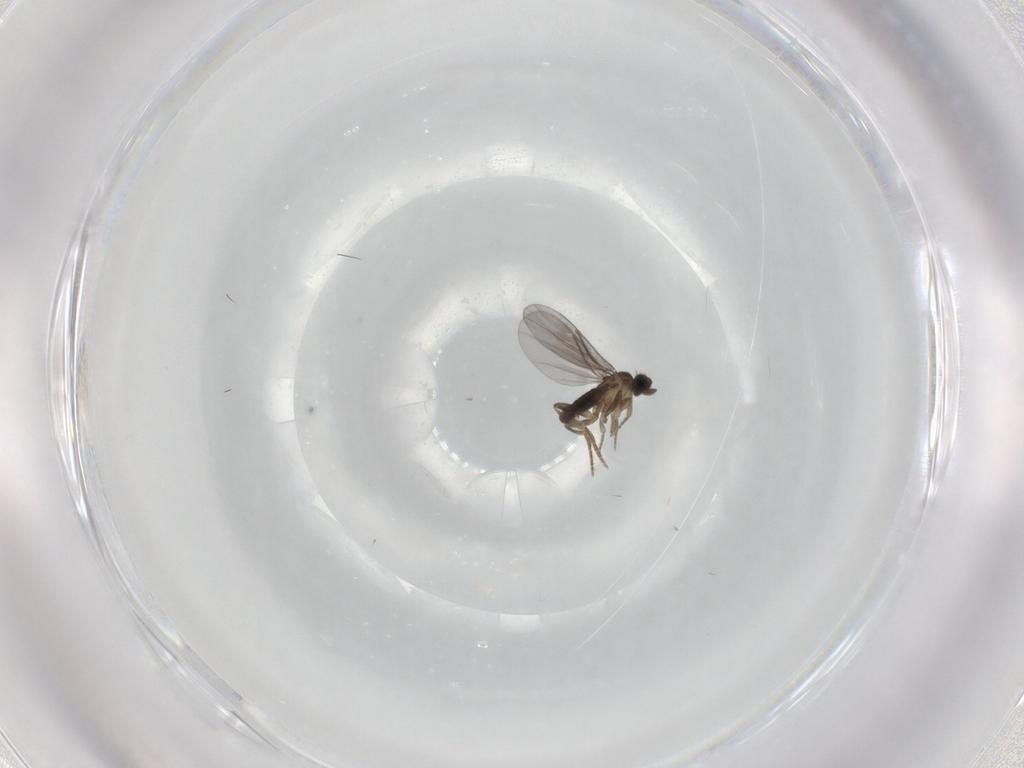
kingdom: Animalia
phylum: Arthropoda
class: Insecta
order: Diptera
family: Phoridae
